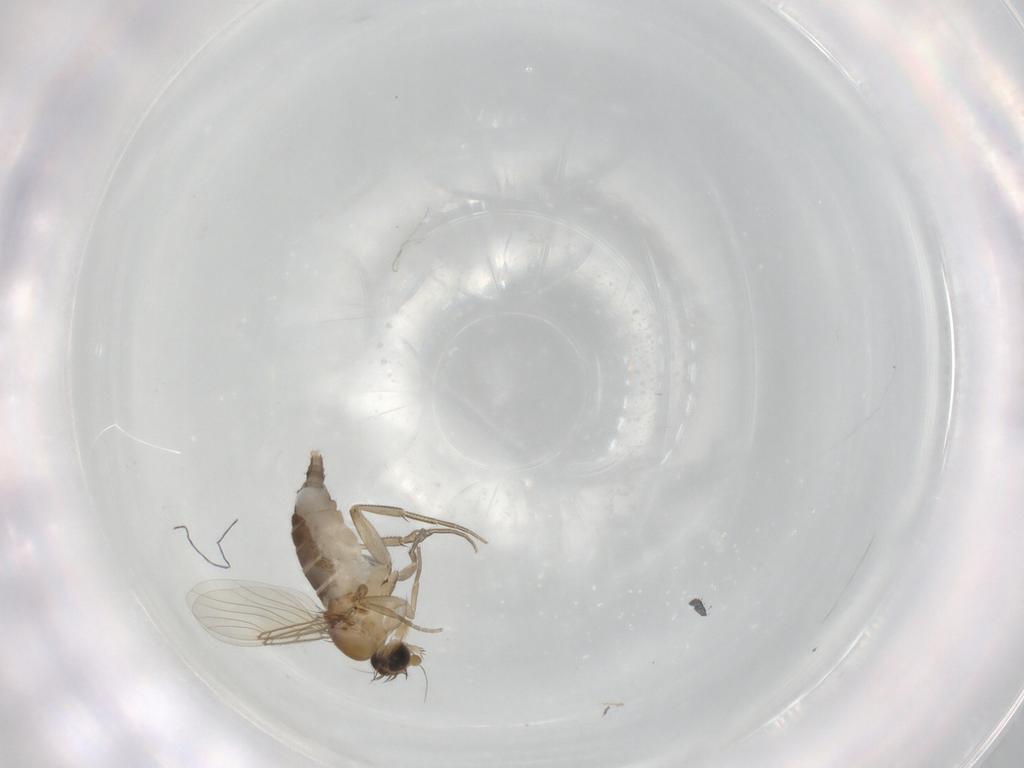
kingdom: Animalia
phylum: Arthropoda
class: Insecta
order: Diptera
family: Phoridae
